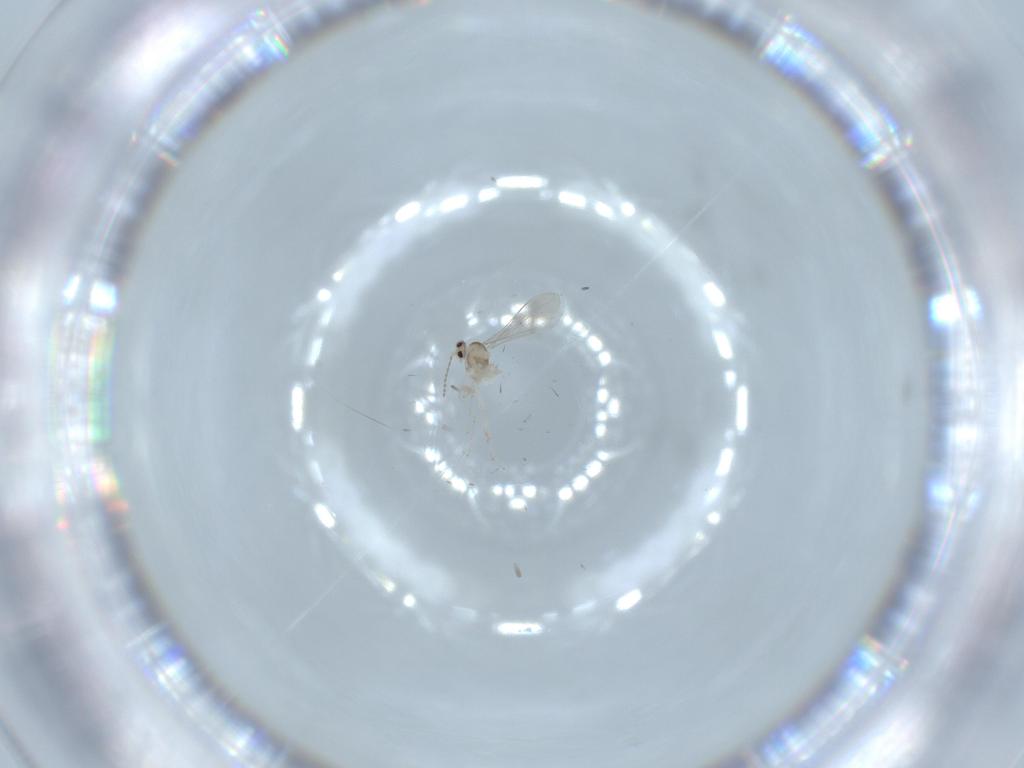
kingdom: Animalia
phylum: Arthropoda
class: Insecta
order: Diptera
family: Cecidomyiidae
